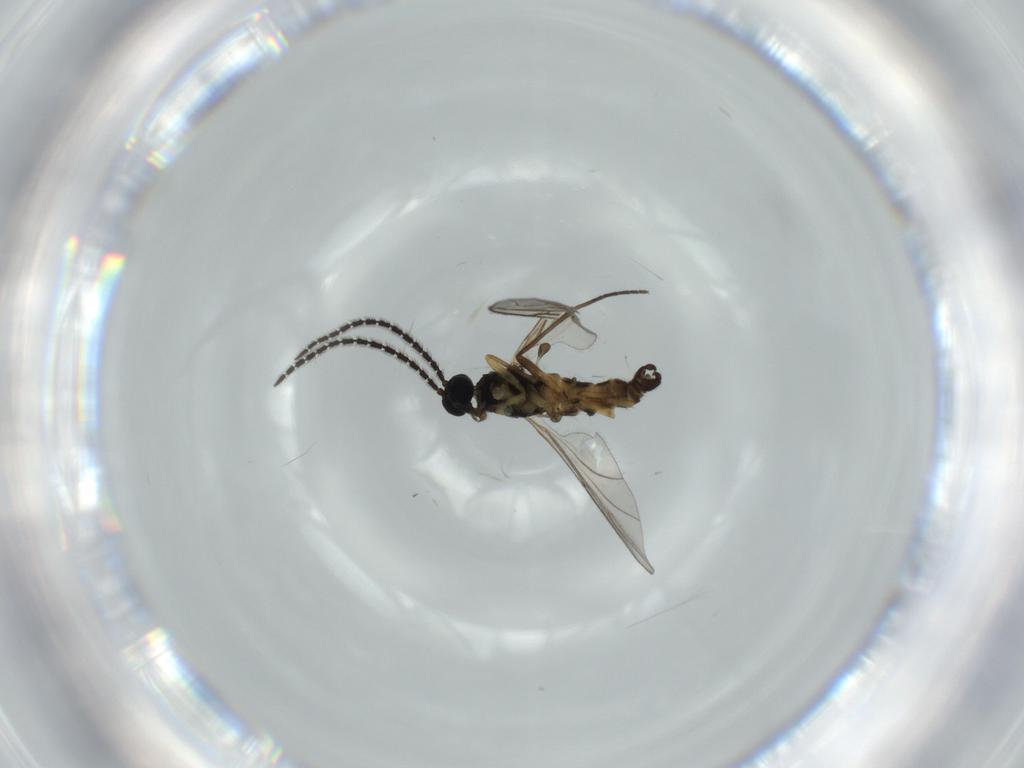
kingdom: Animalia
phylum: Arthropoda
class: Insecta
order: Diptera
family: Sciaridae
